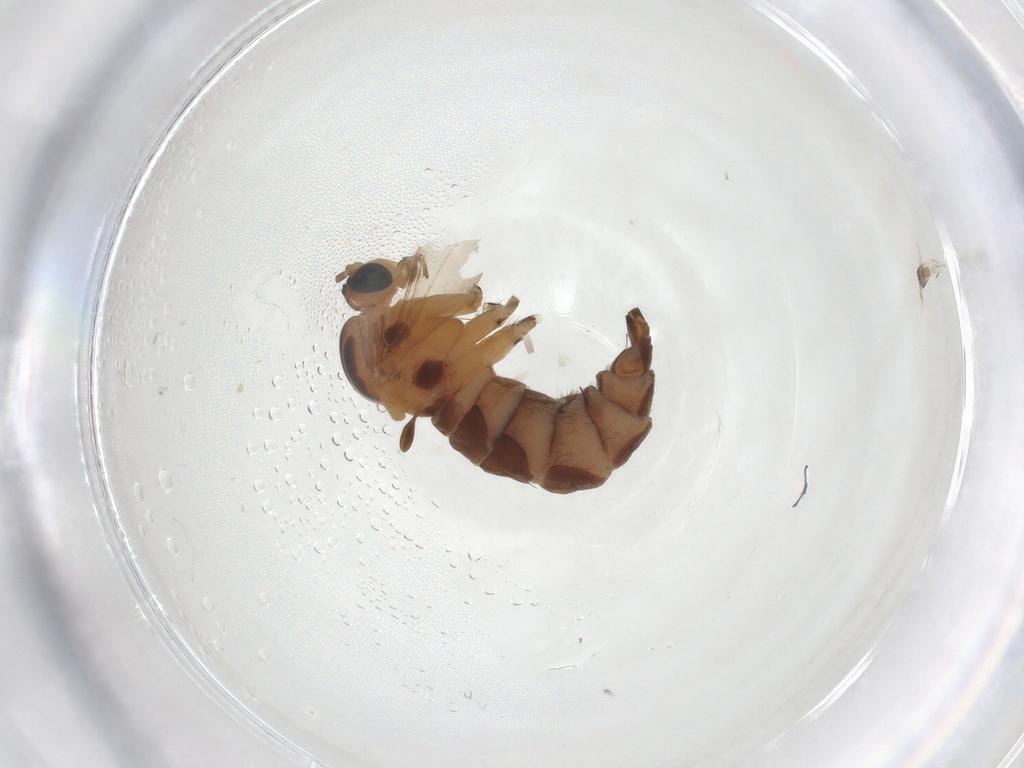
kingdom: Animalia
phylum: Arthropoda
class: Insecta
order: Diptera
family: Sciaridae
